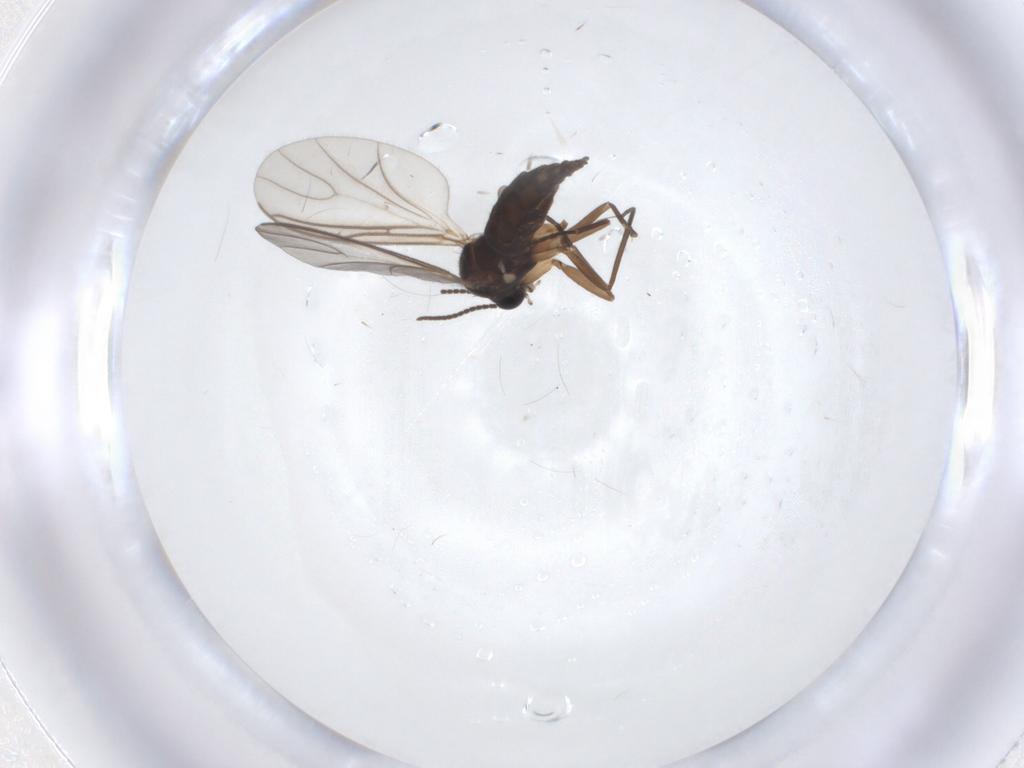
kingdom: Animalia
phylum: Arthropoda
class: Insecta
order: Diptera
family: Sciaridae
